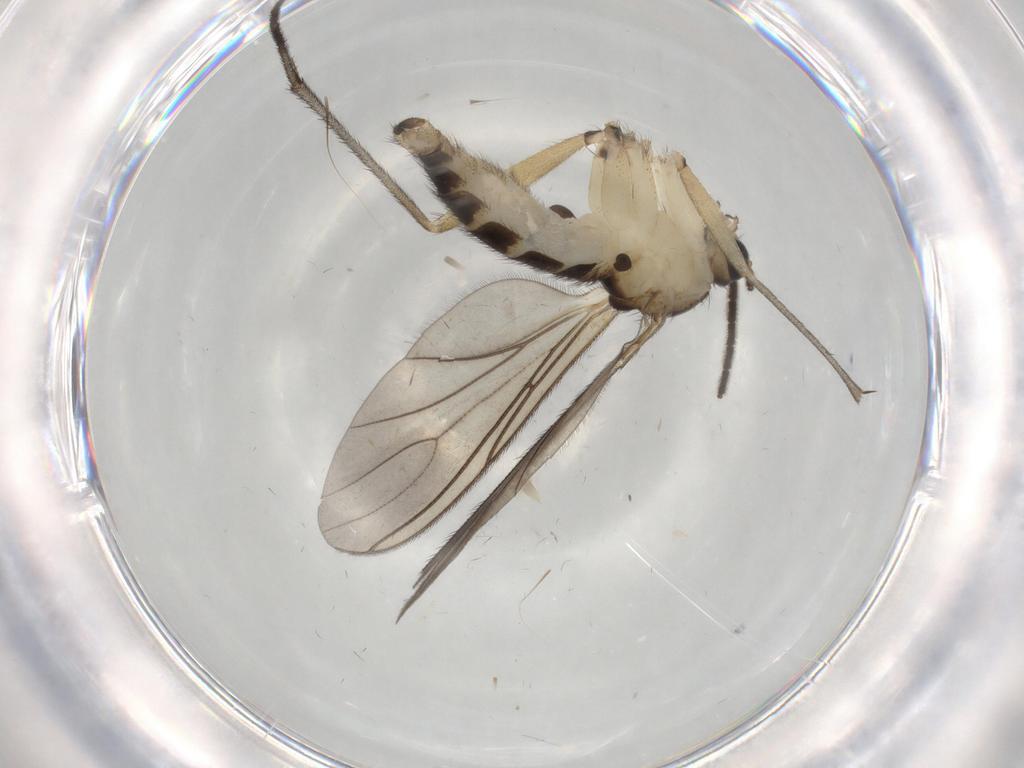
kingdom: Animalia
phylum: Arthropoda
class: Insecta
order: Diptera
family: Sciaridae
